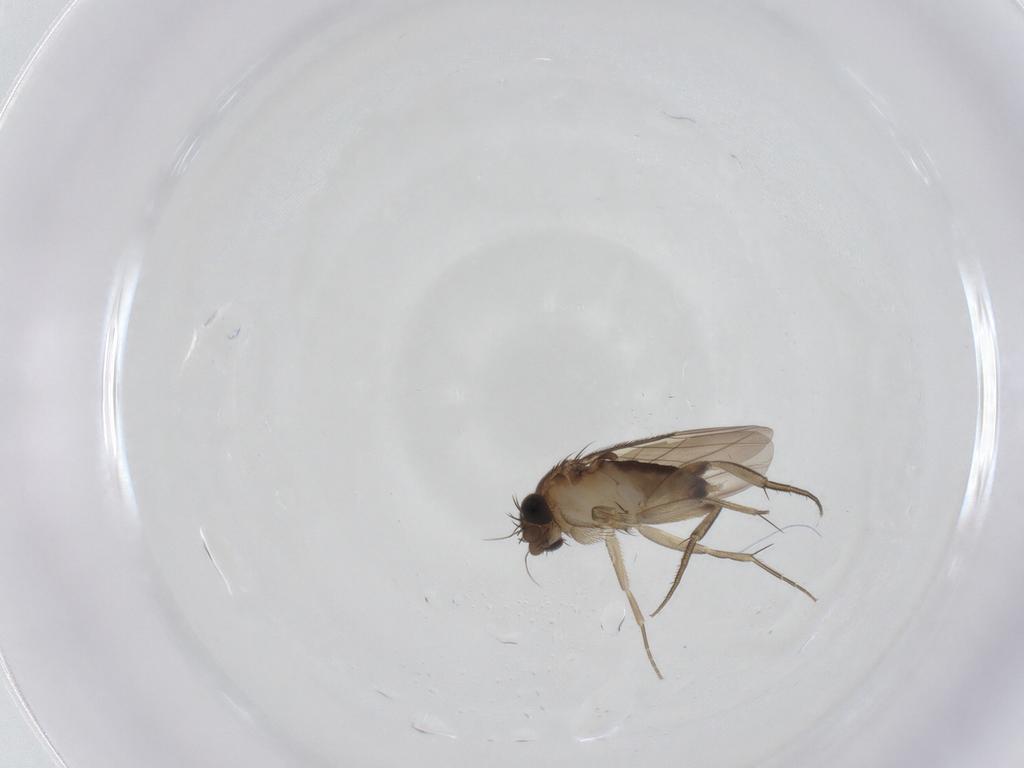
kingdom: Animalia
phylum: Arthropoda
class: Insecta
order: Diptera
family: Phoridae
